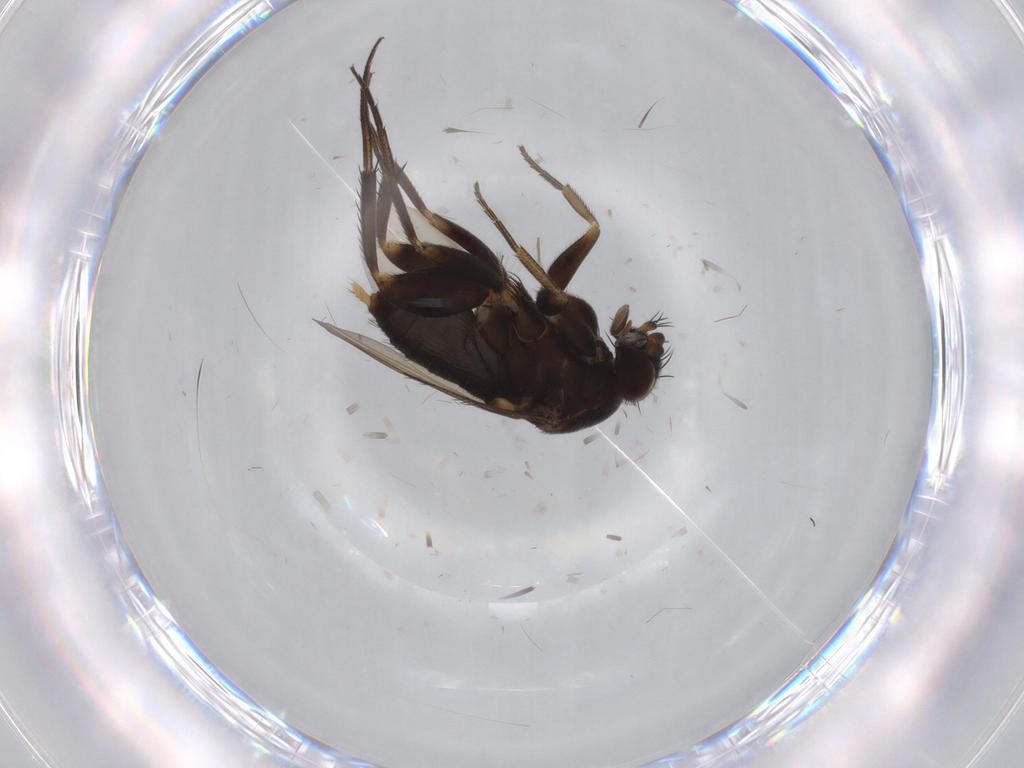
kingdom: Animalia
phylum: Arthropoda
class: Insecta
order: Diptera
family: Phoridae
